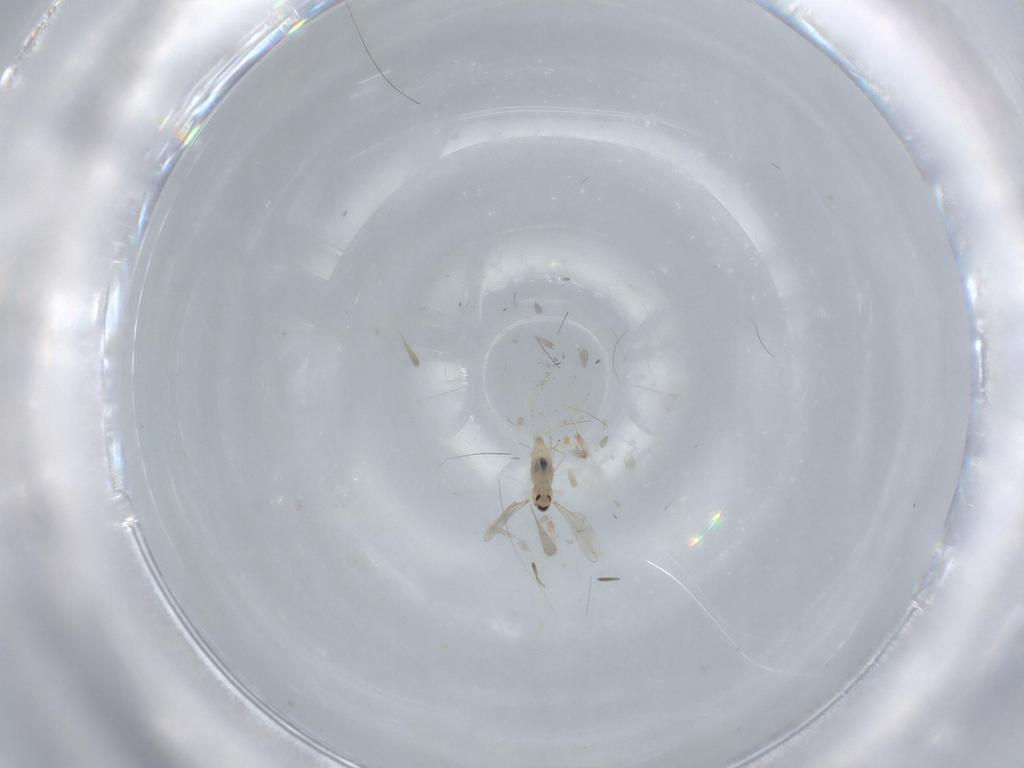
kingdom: Animalia
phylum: Arthropoda
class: Insecta
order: Diptera
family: Cecidomyiidae
